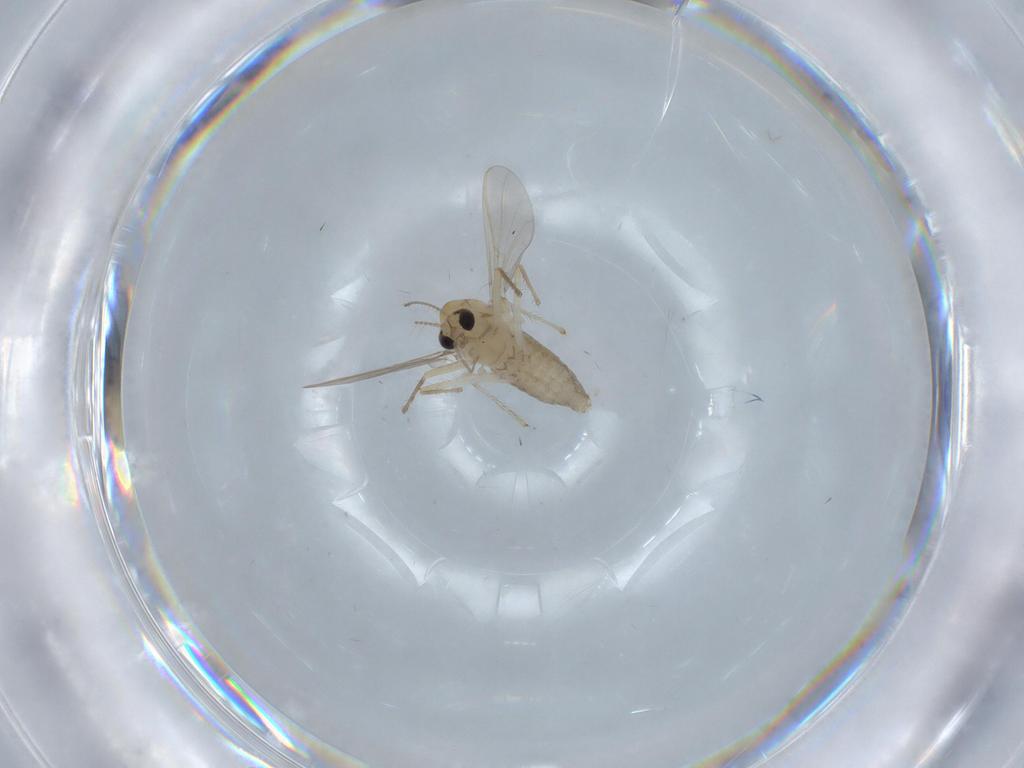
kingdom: Animalia
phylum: Arthropoda
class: Insecta
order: Diptera
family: Chironomidae
